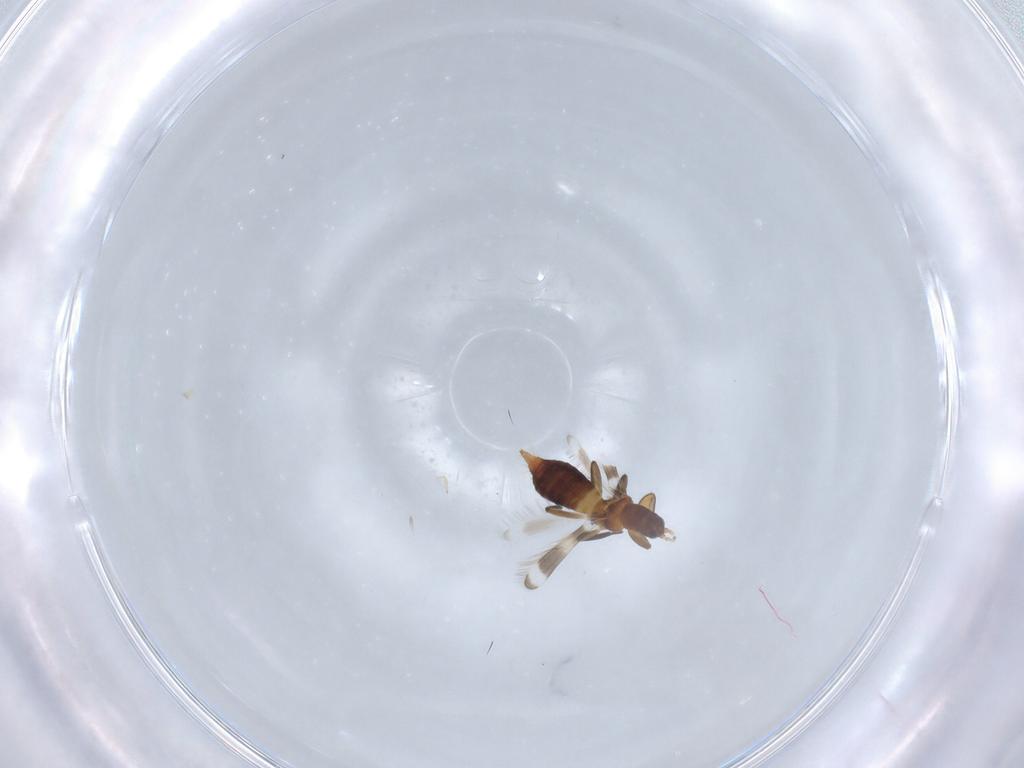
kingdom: Animalia
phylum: Arthropoda
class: Insecta
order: Thysanoptera
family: Aeolothripidae
